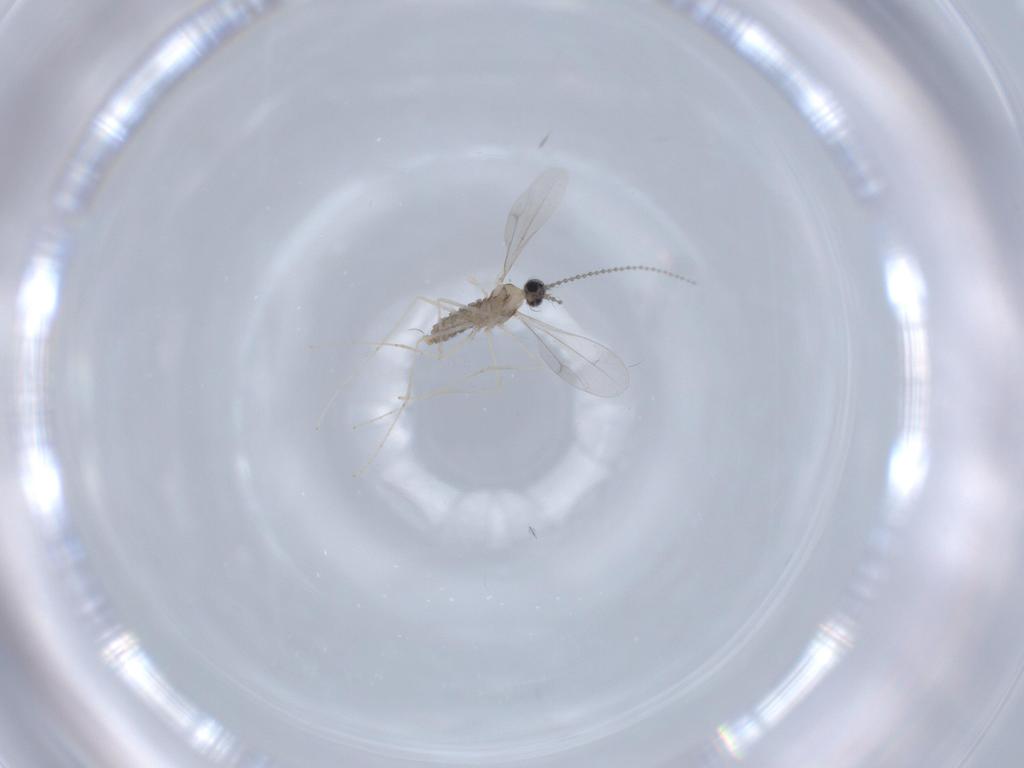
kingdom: Animalia
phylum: Arthropoda
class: Insecta
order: Diptera
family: Cecidomyiidae
